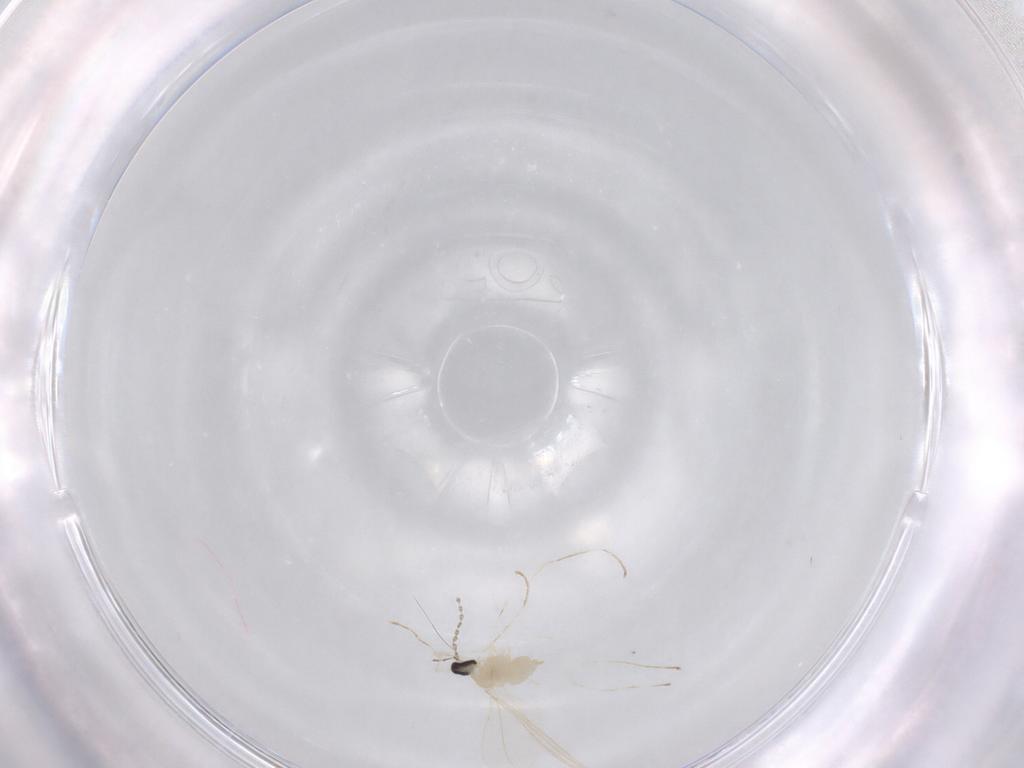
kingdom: Animalia
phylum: Arthropoda
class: Insecta
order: Diptera
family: Cecidomyiidae
